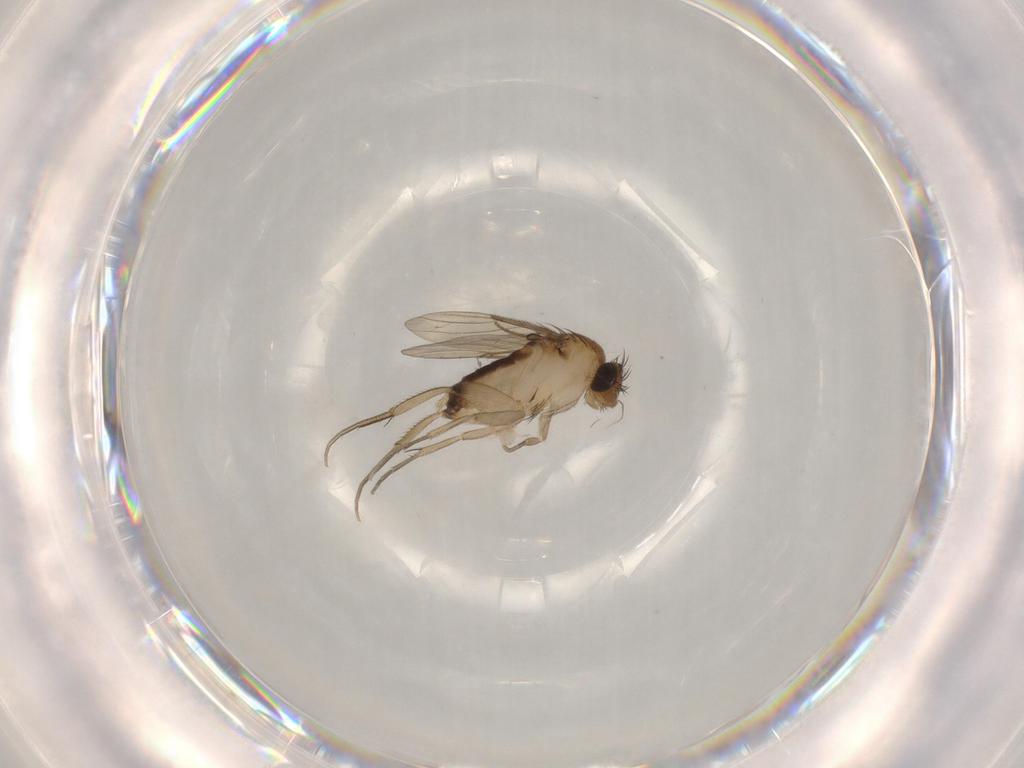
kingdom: Animalia
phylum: Arthropoda
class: Insecta
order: Diptera
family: Phoridae
